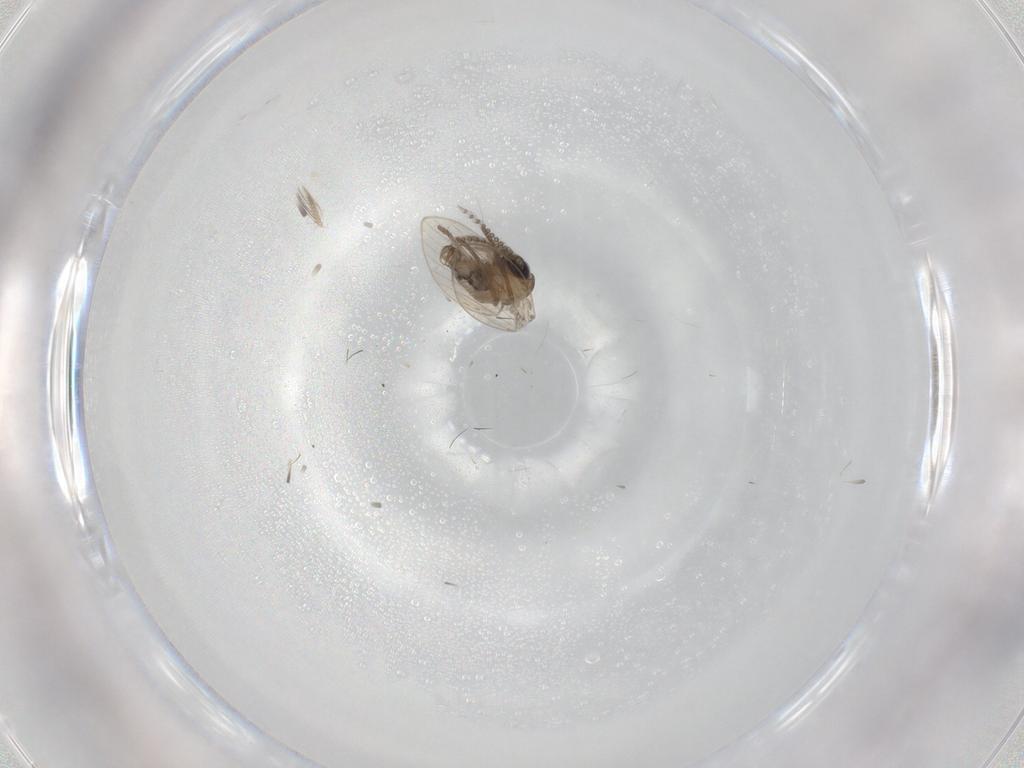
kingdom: Animalia
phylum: Arthropoda
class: Insecta
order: Diptera
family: Psychodidae
